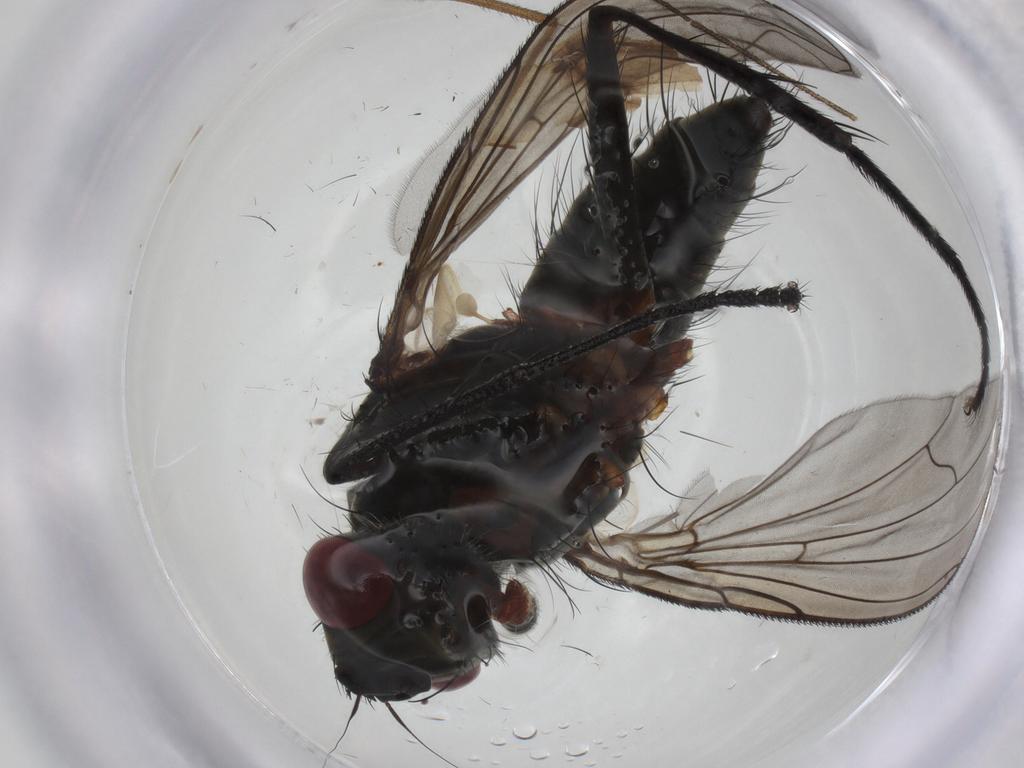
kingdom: Animalia
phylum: Arthropoda
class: Insecta
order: Diptera
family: Tachinidae
